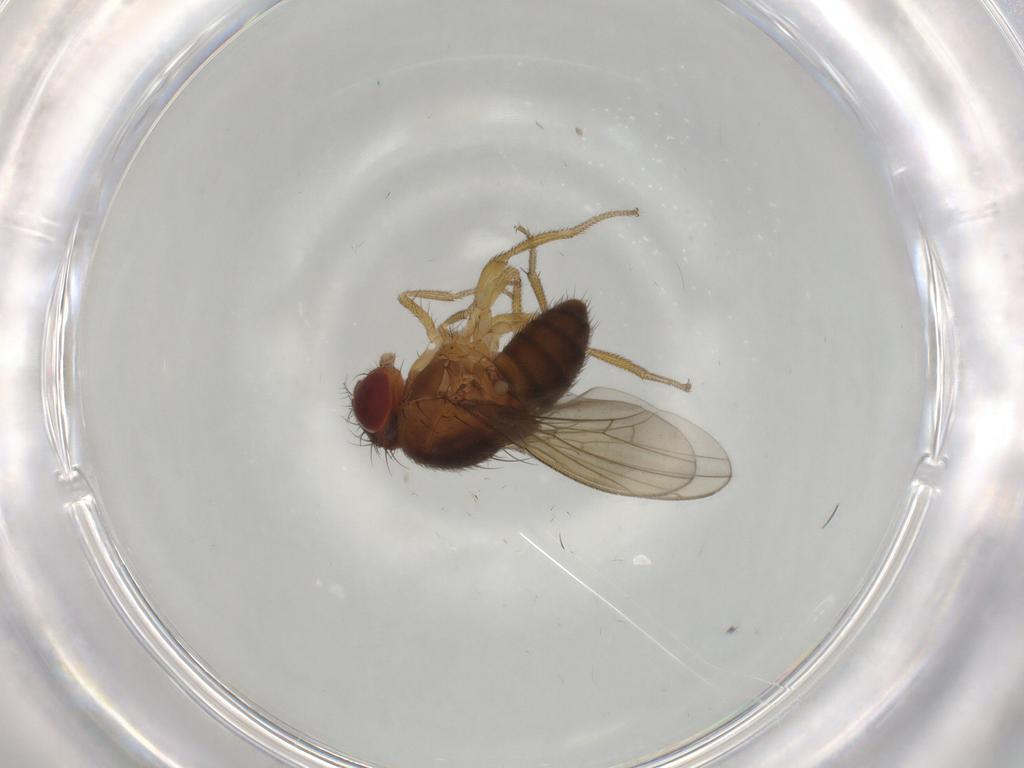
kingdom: Animalia
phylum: Arthropoda
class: Insecta
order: Diptera
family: Drosophilidae
